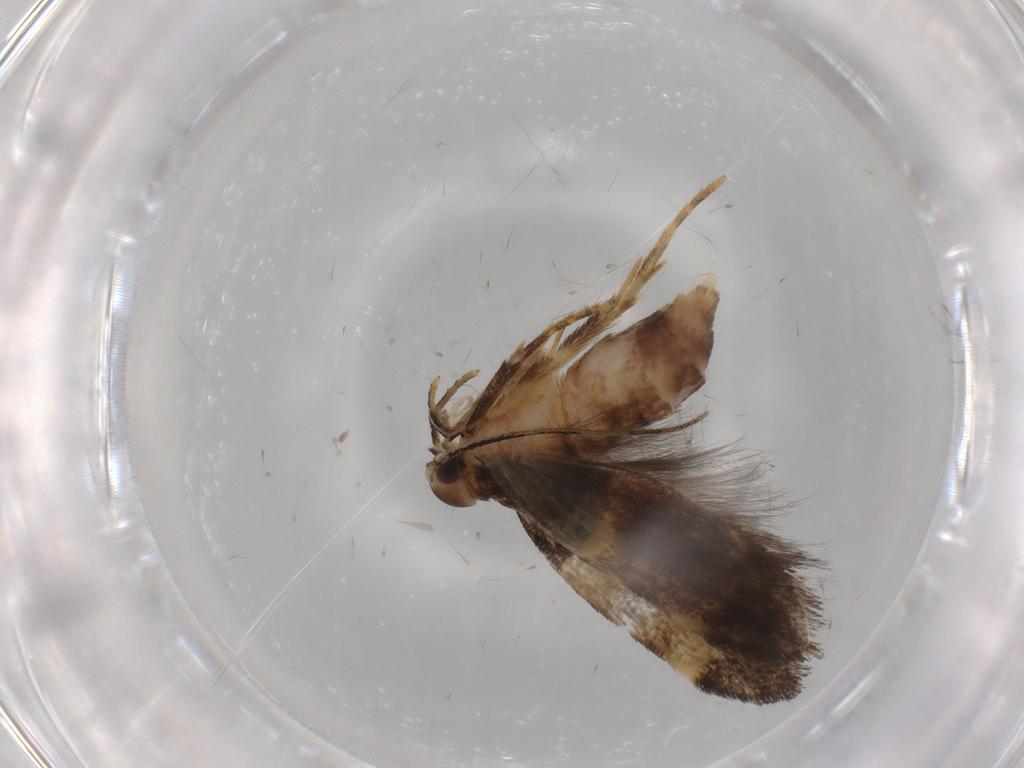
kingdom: Animalia
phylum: Arthropoda
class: Insecta
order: Lepidoptera
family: Cosmopterigidae
